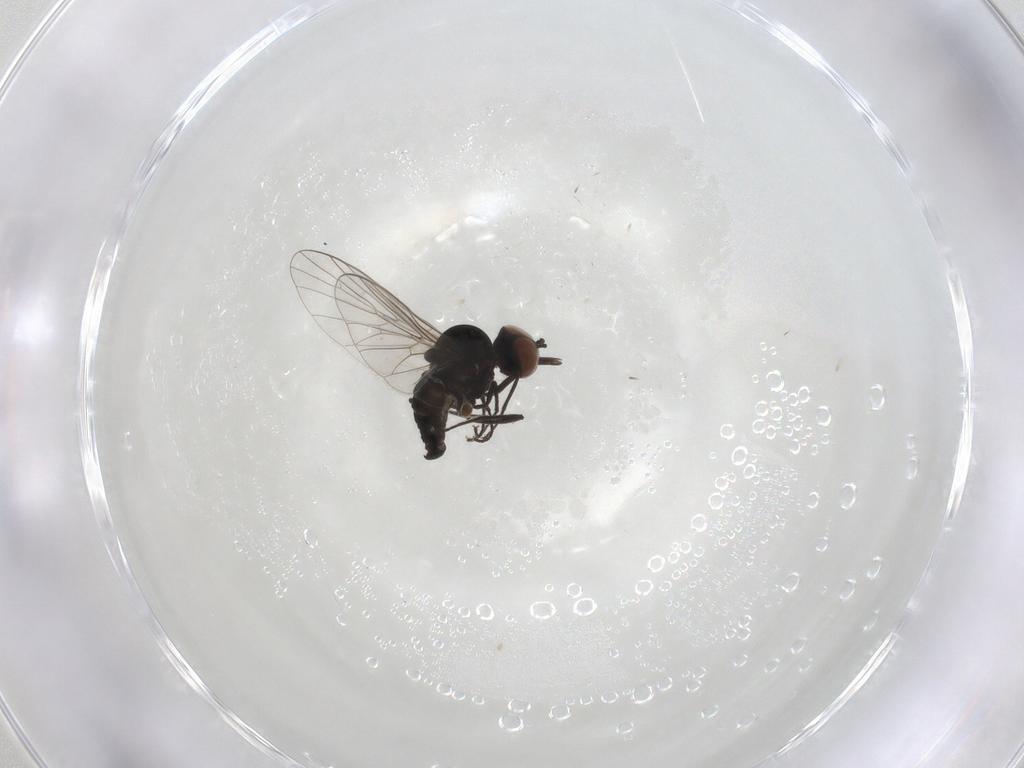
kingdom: Animalia
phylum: Arthropoda
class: Insecta
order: Diptera
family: Bombyliidae
